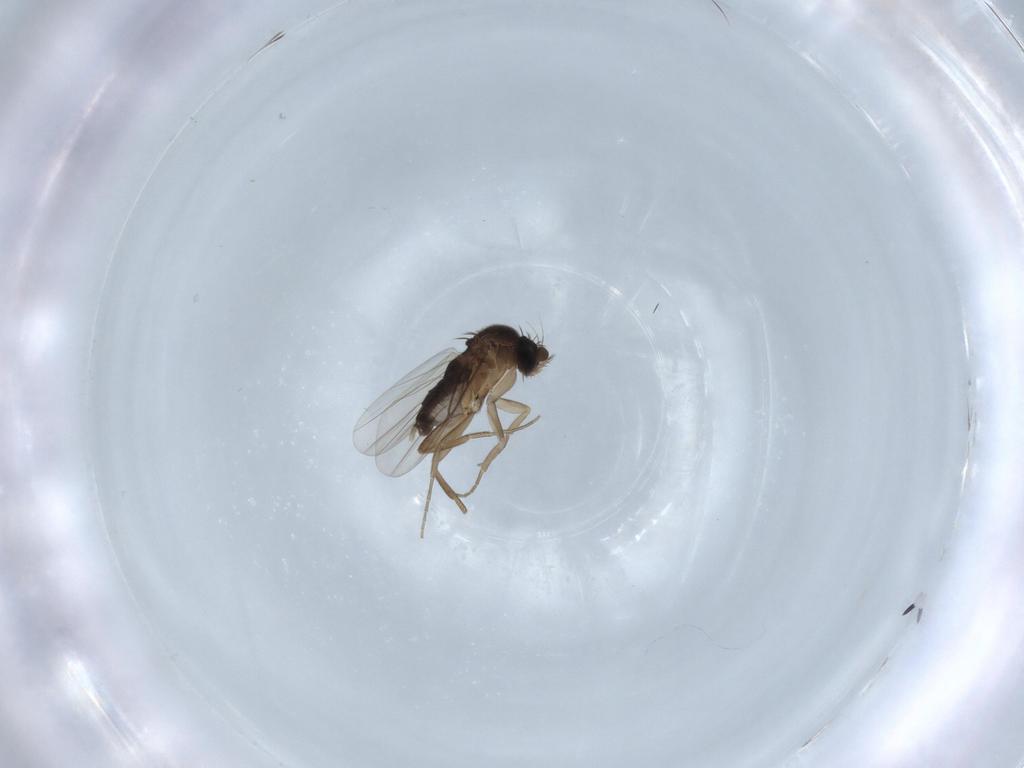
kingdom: Animalia
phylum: Arthropoda
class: Insecta
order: Diptera
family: Phoridae
